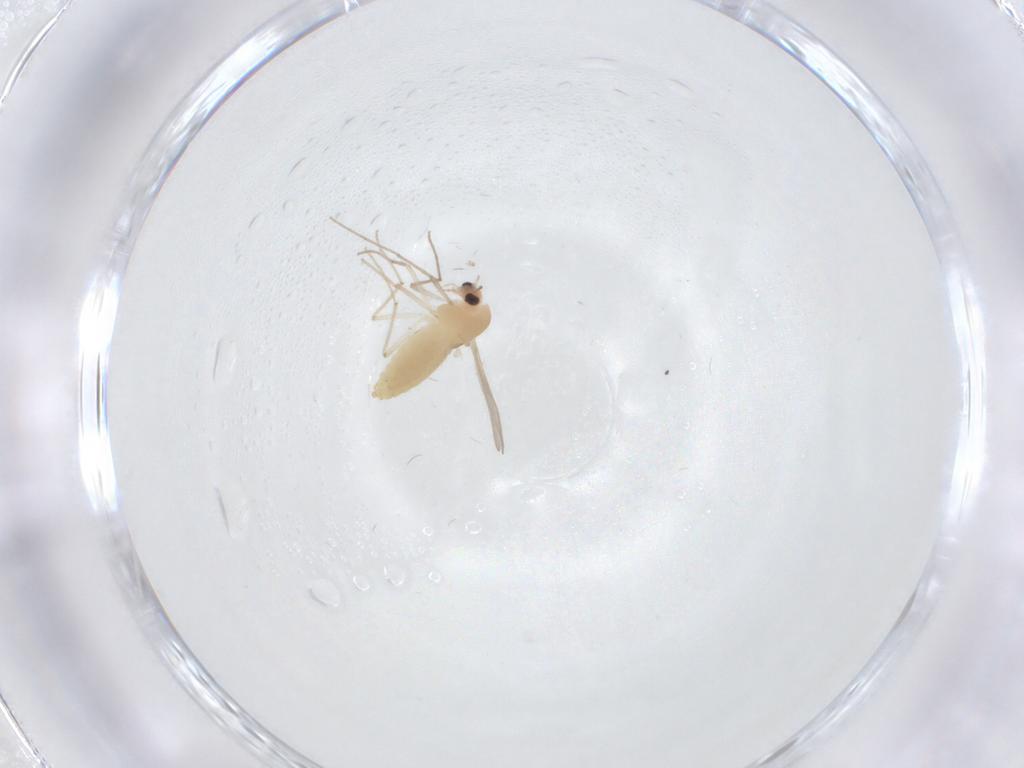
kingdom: Animalia
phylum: Arthropoda
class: Insecta
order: Diptera
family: Chironomidae
